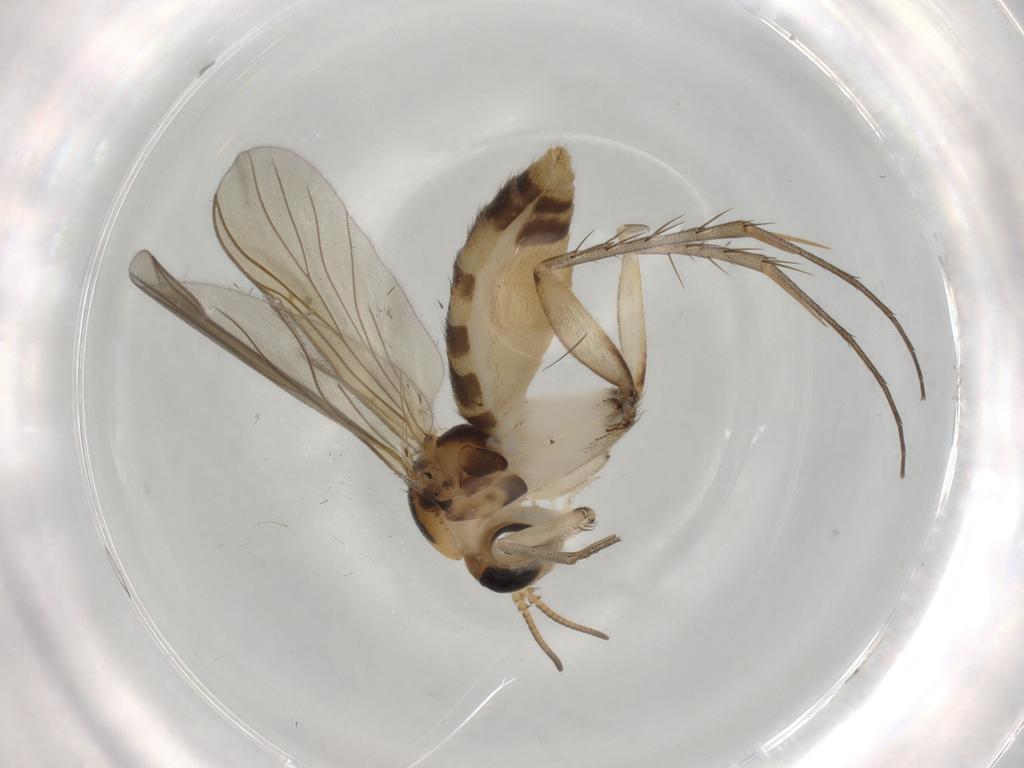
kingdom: Animalia
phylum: Arthropoda
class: Insecta
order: Diptera
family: Mycetophilidae
